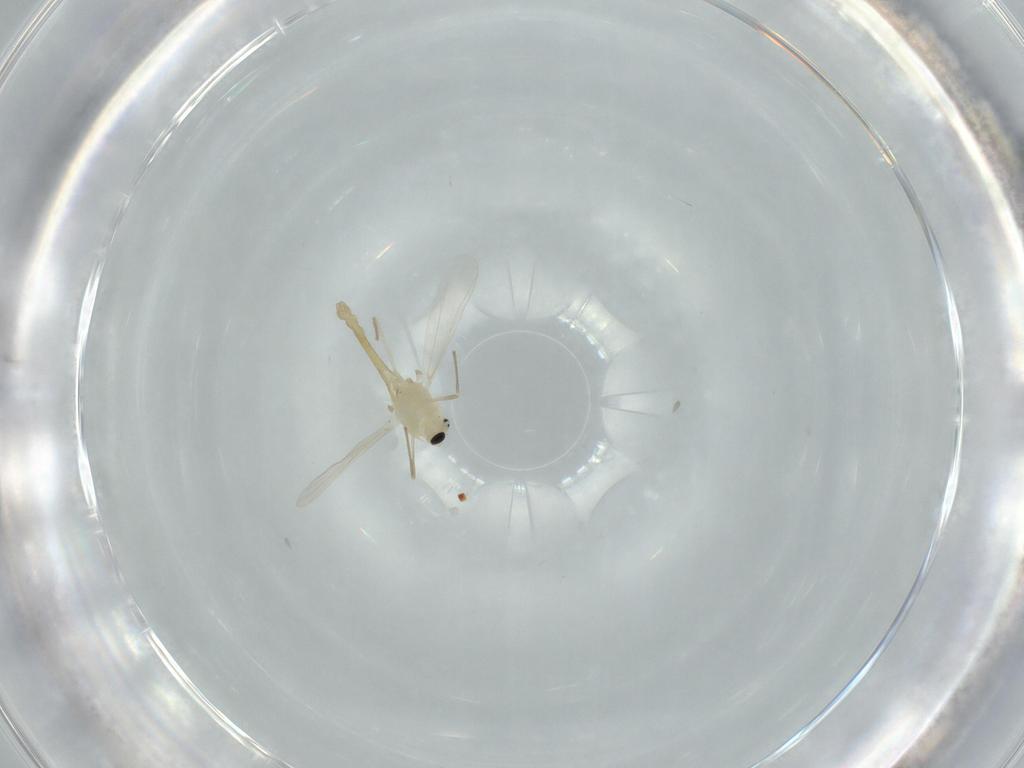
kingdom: Animalia
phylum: Arthropoda
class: Insecta
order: Diptera
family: Chironomidae
